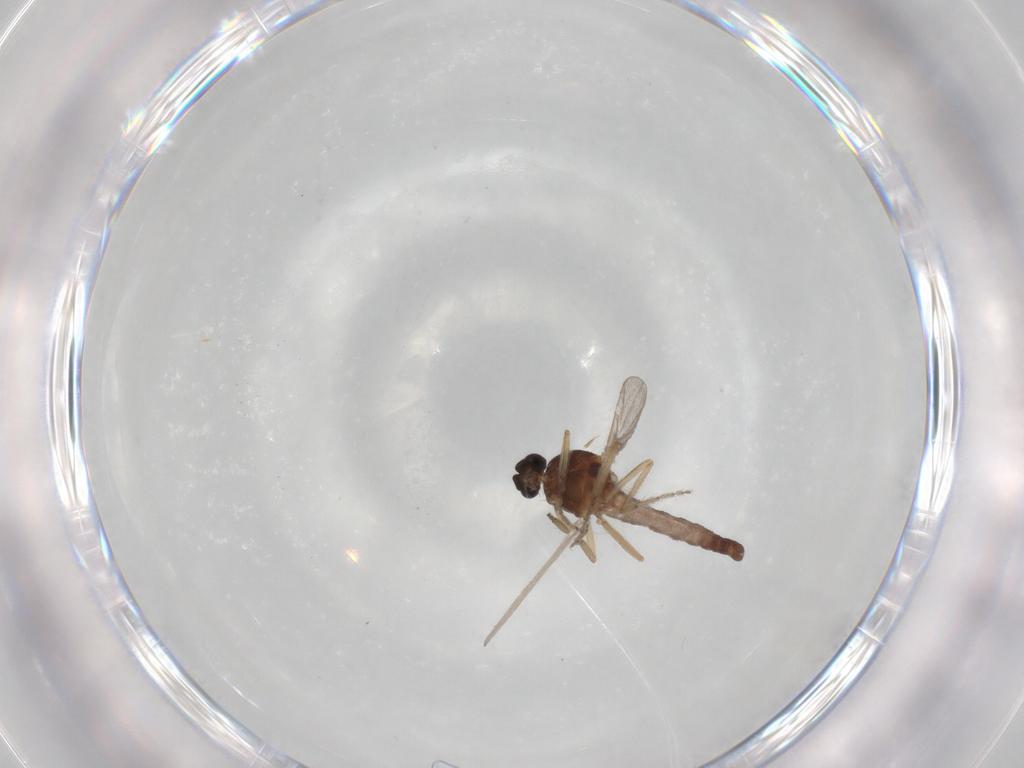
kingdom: Animalia
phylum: Arthropoda
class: Insecta
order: Diptera
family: Ceratopogonidae
